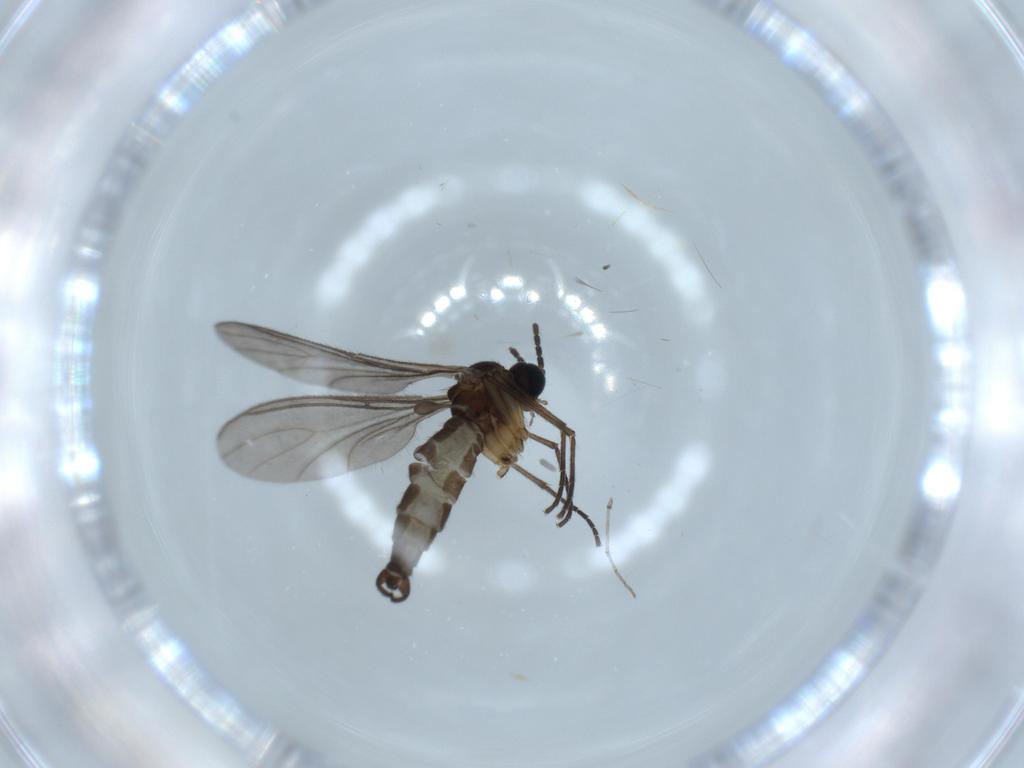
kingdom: Animalia
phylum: Arthropoda
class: Insecta
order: Diptera
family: Sciaridae
